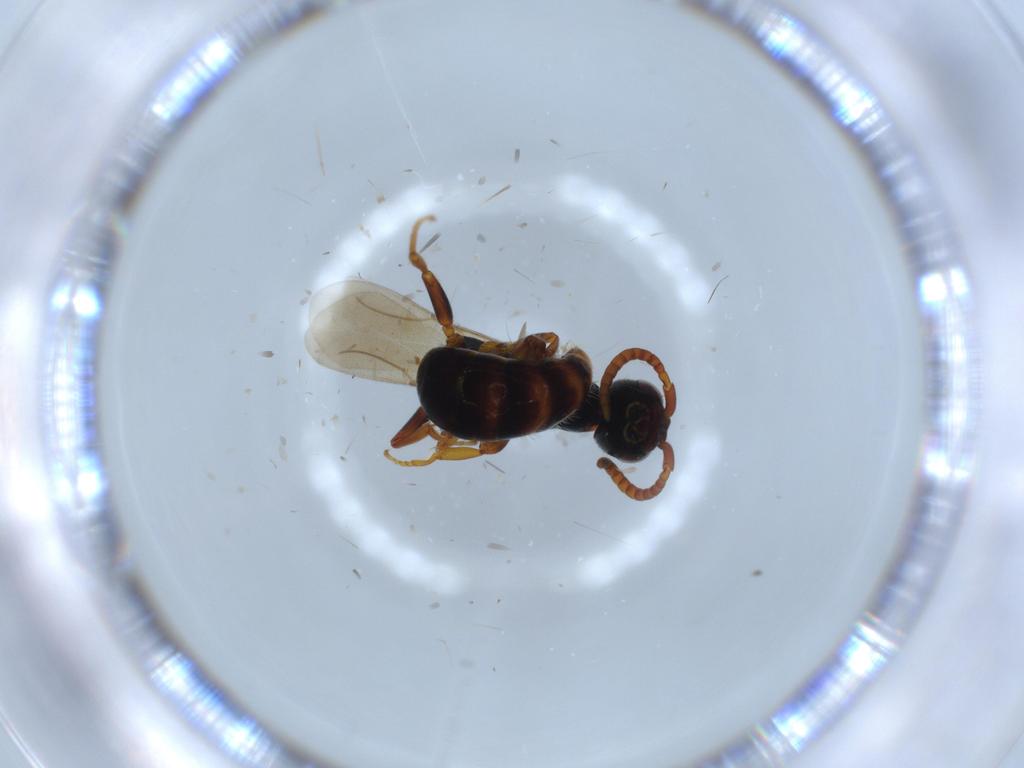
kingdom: Animalia
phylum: Arthropoda
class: Insecta
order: Hymenoptera
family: Bethylidae
